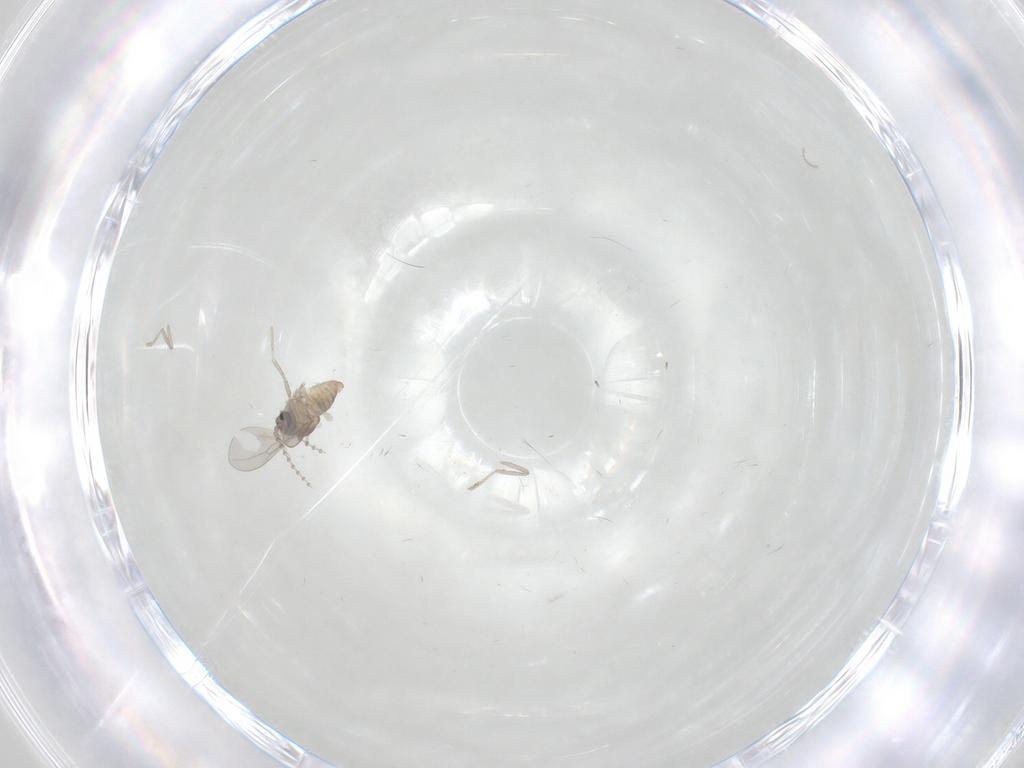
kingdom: Animalia
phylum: Arthropoda
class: Insecta
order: Diptera
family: Cecidomyiidae
